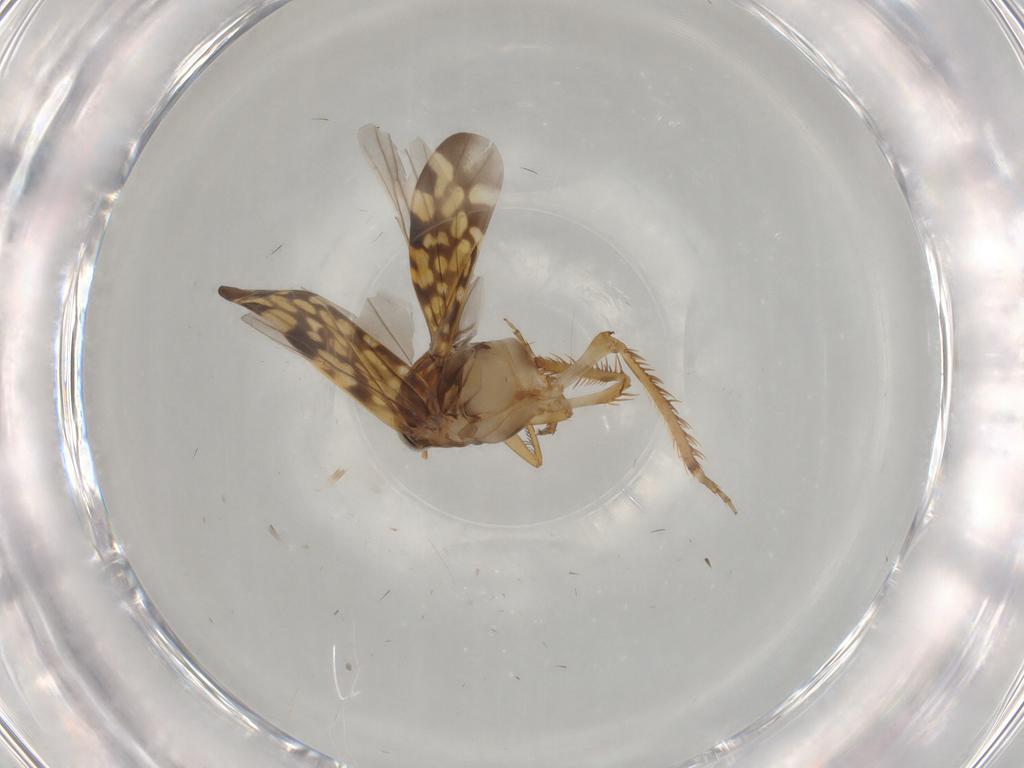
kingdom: Animalia
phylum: Arthropoda
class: Insecta
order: Hemiptera
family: Cicadellidae
